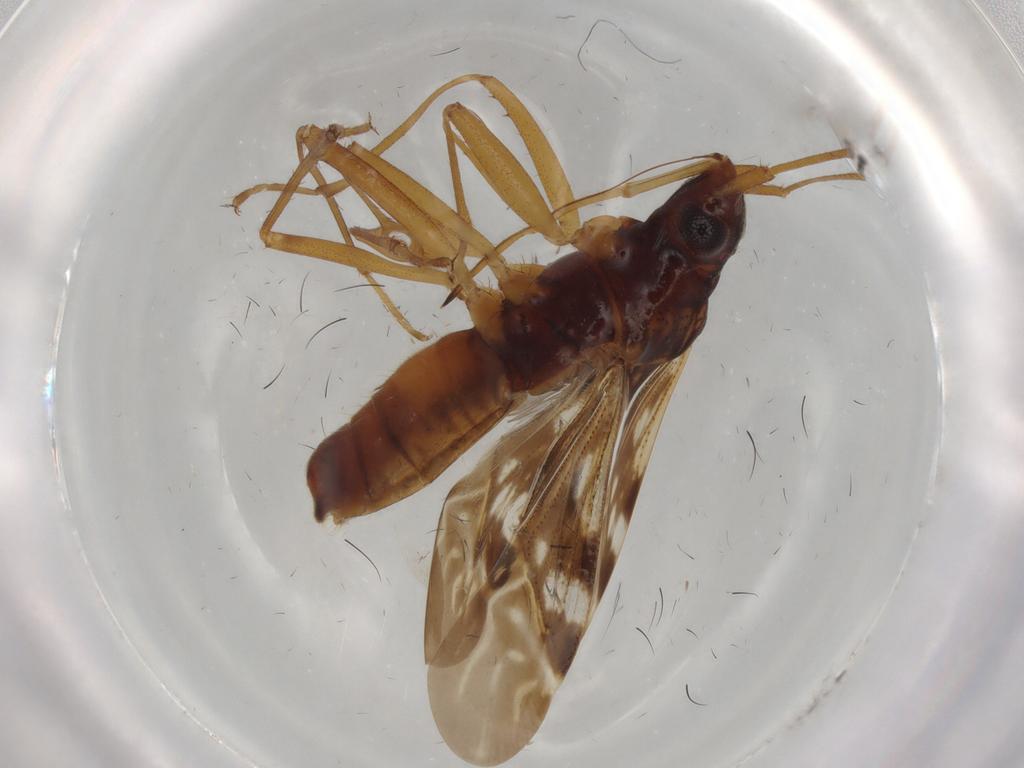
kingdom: Animalia
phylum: Arthropoda
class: Insecta
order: Hemiptera
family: Rhyparochromidae
